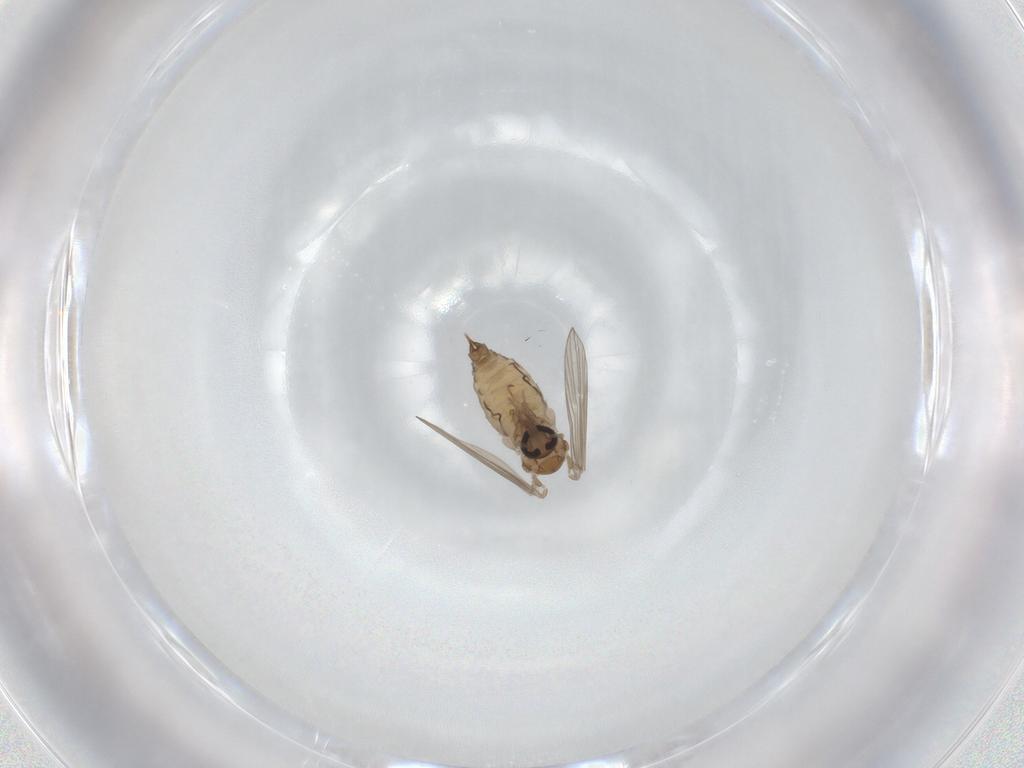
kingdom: Animalia
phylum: Arthropoda
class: Insecta
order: Diptera
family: Psychodidae
